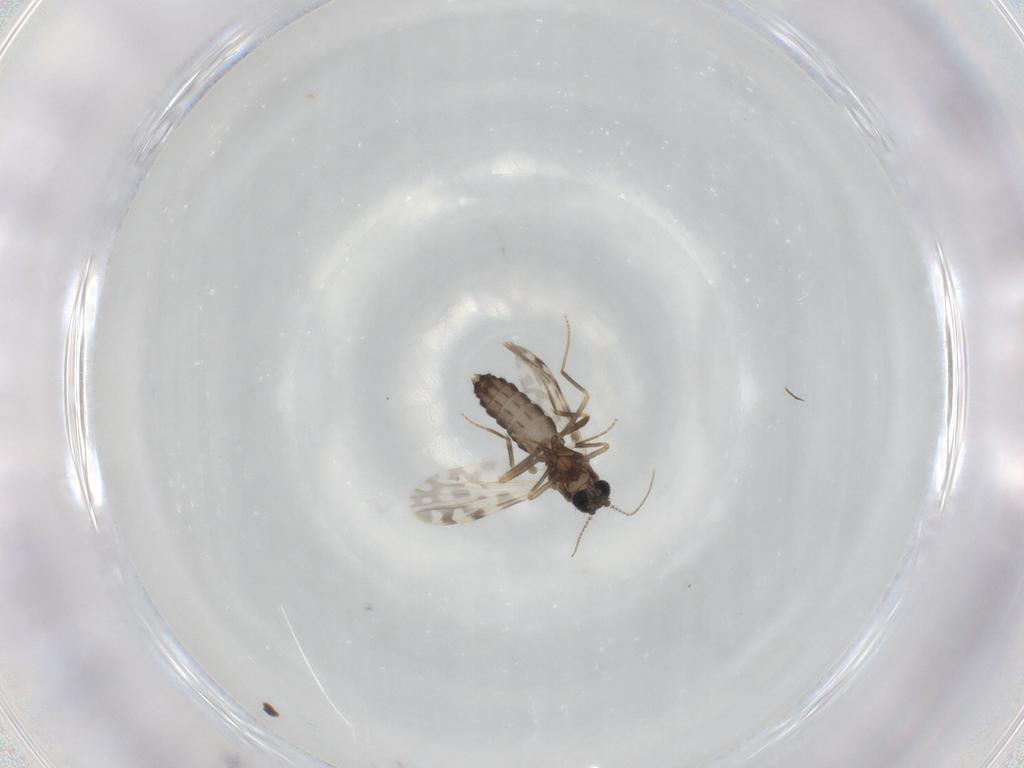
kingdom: Animalia
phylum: Arthropoda
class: Insecta
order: Diptera
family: Ceratopogonidae
